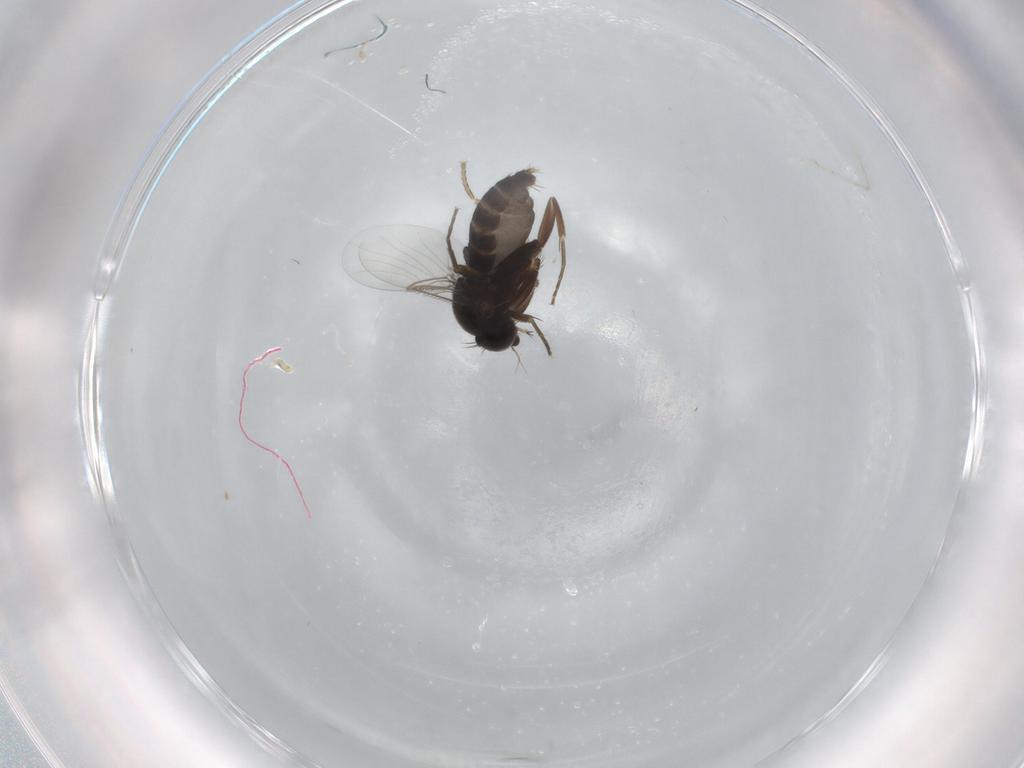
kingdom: Animalia
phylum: Arthropoda
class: Insecta
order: Diptera
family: Phoridae
